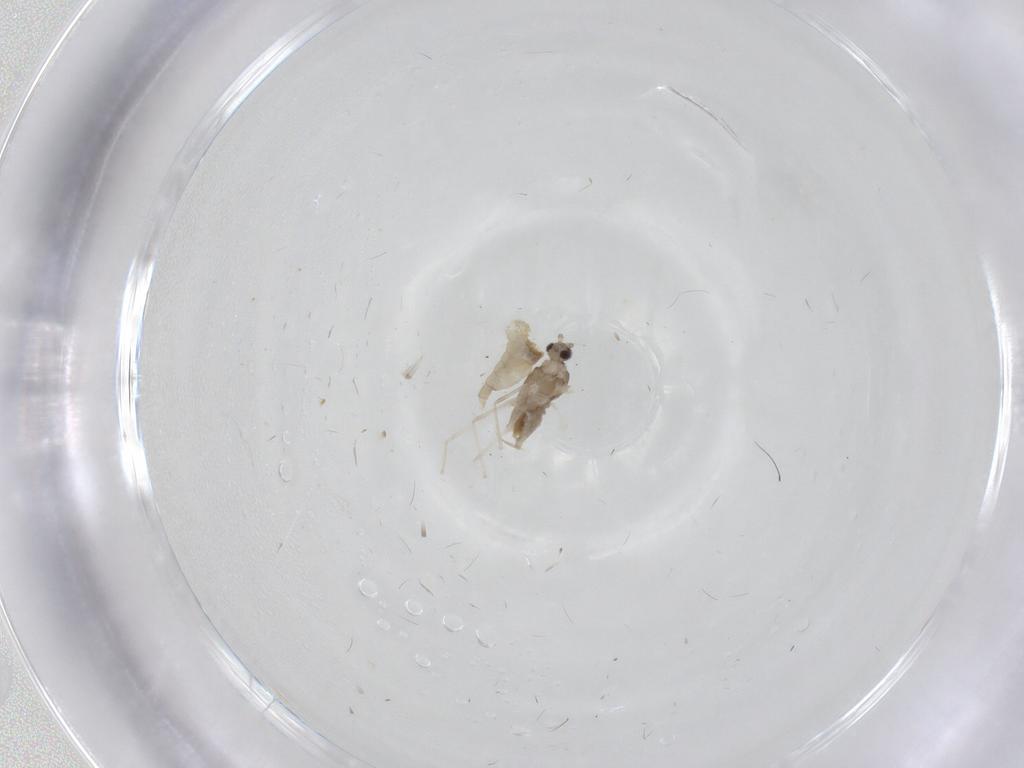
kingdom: Animalia
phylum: Arthropoda
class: Insecta
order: Diptera
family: Cecidomyiidae
